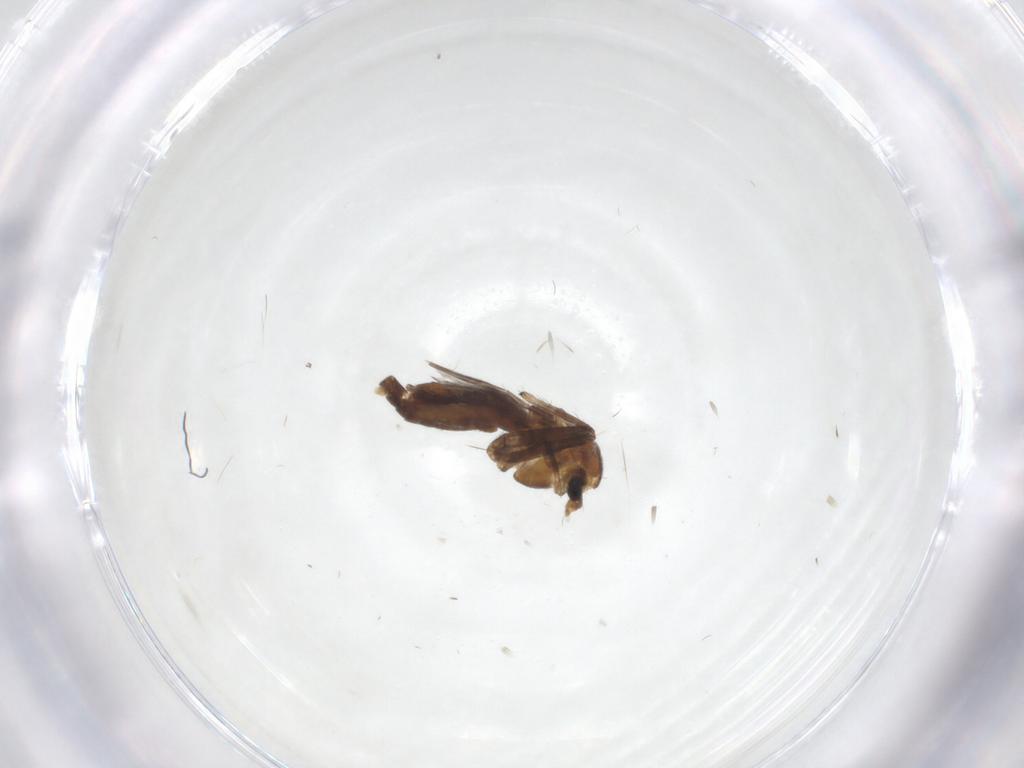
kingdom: Animalia
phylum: Arthropoda
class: Insecta
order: Diptera
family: Chironomidae
